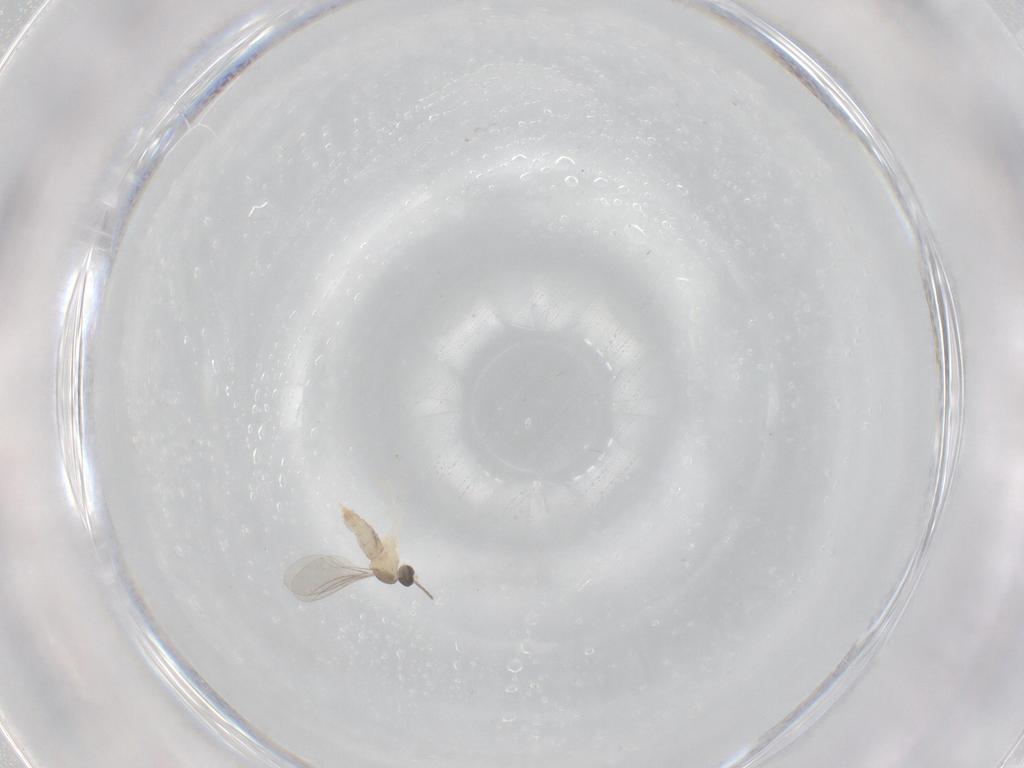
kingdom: Animalia
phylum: Arthropoda
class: Insecta
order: Diptera
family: Cecidomyiidae
